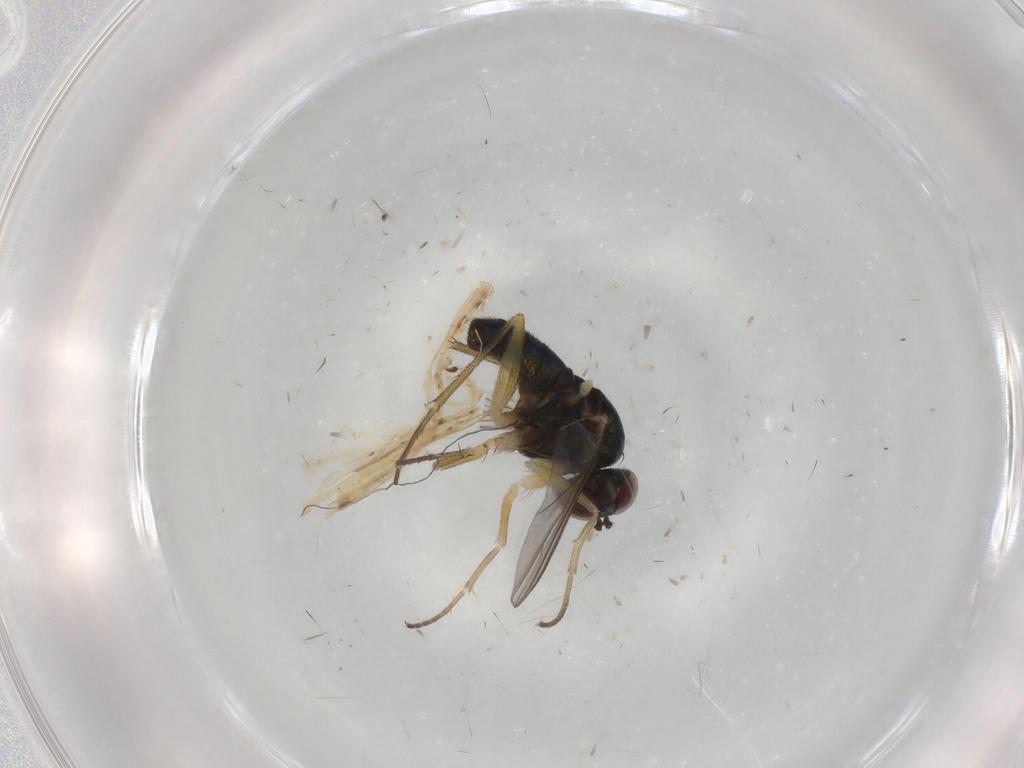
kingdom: Animalia
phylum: Arthropoda
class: Insecta
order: Diptera
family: Dolichopodidae
